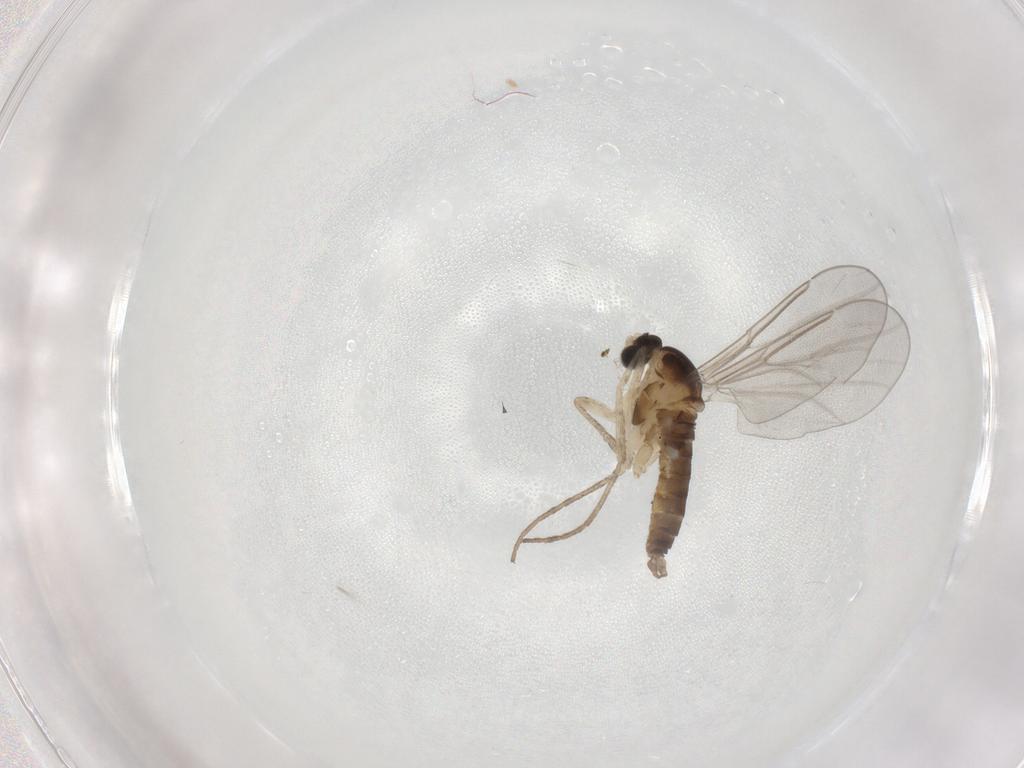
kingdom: Animalia
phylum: Arthropoda
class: Insecta
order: Diptera
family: Cecidomyiidae
